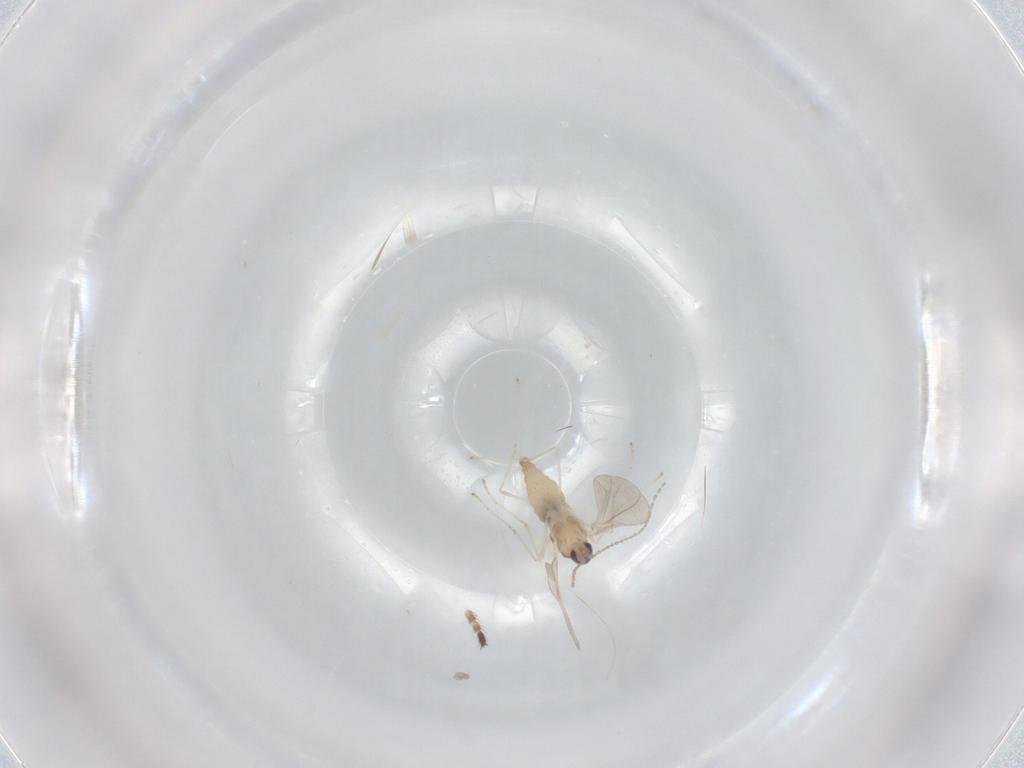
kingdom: Animalia
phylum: Arthropoda
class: Insecta
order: Diptera
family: Limoniidae
